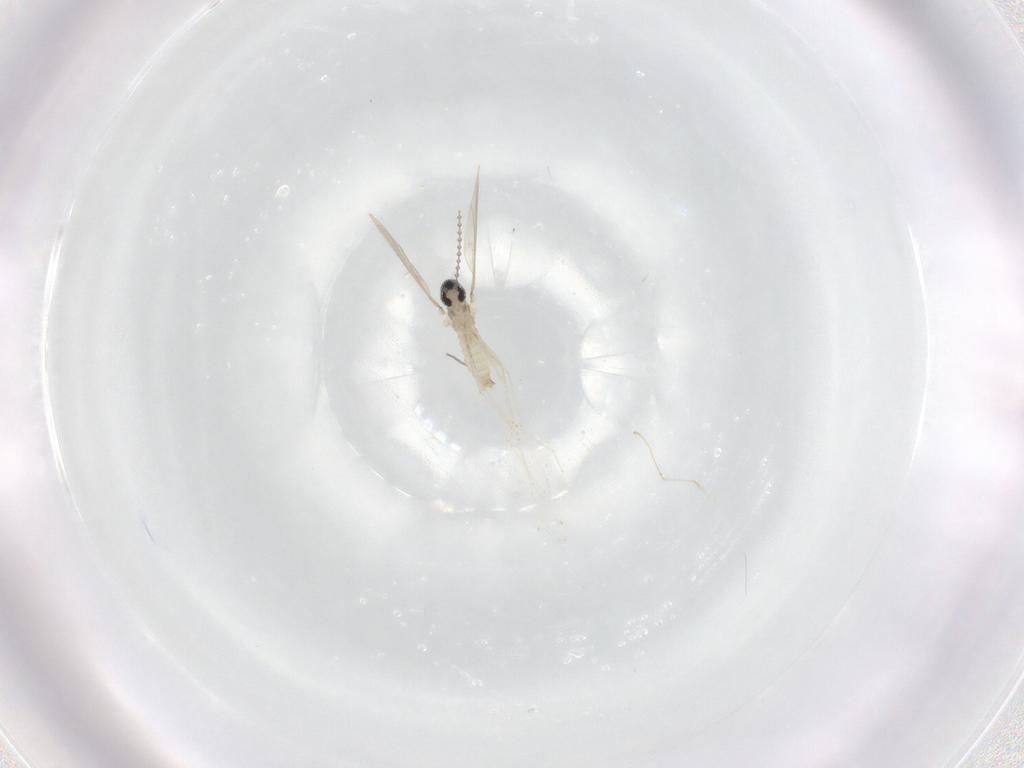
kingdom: Animalia
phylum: Arthropoda
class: Insecta
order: Diptera
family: Cecidomyiidae
